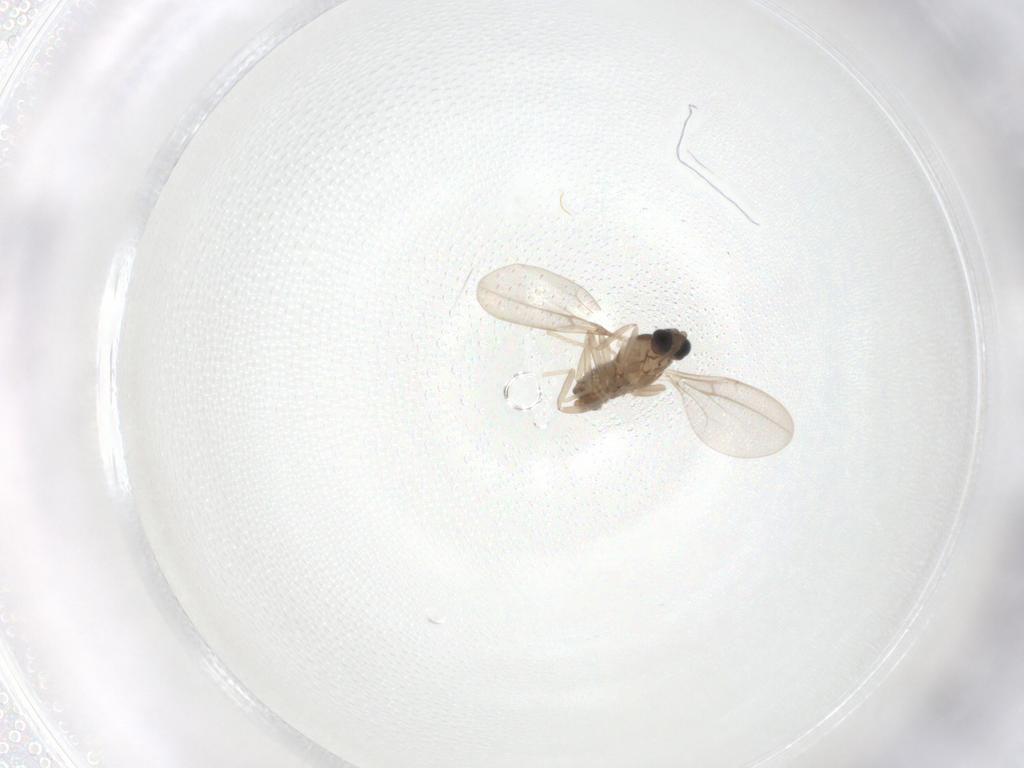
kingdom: Animalia
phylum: Arthropoda
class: Insecta
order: Diptera
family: Cecidomyiidae
